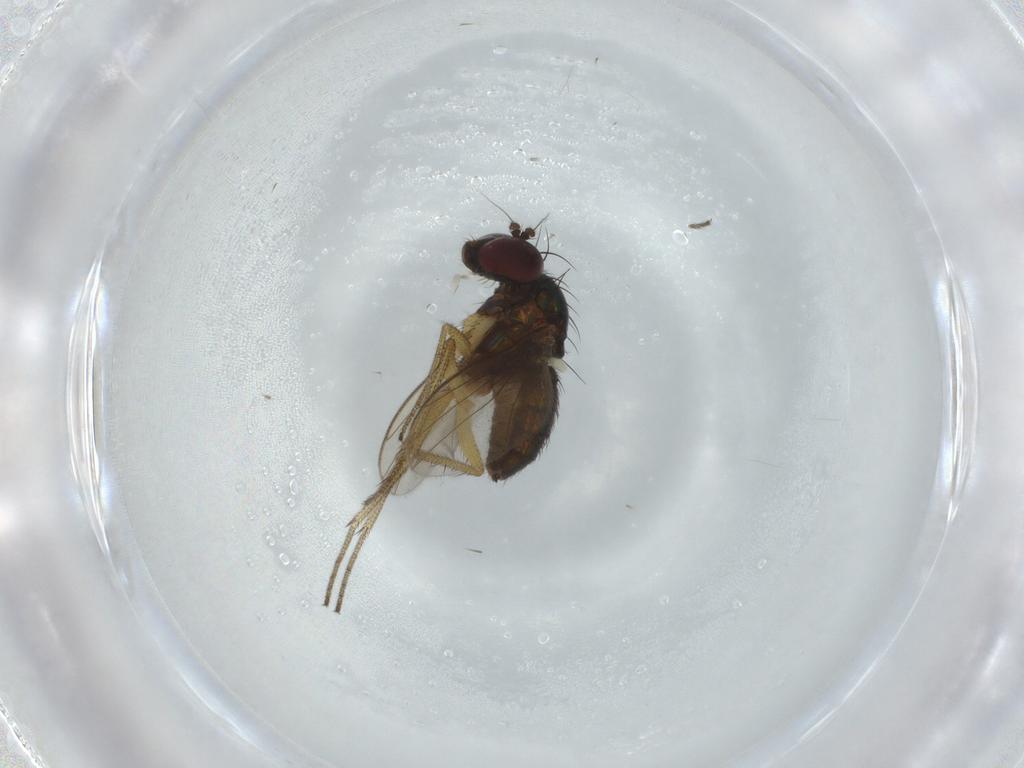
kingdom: Animalia
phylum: Arthropoda
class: Insecta
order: Diptera
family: Dolichopodidae
